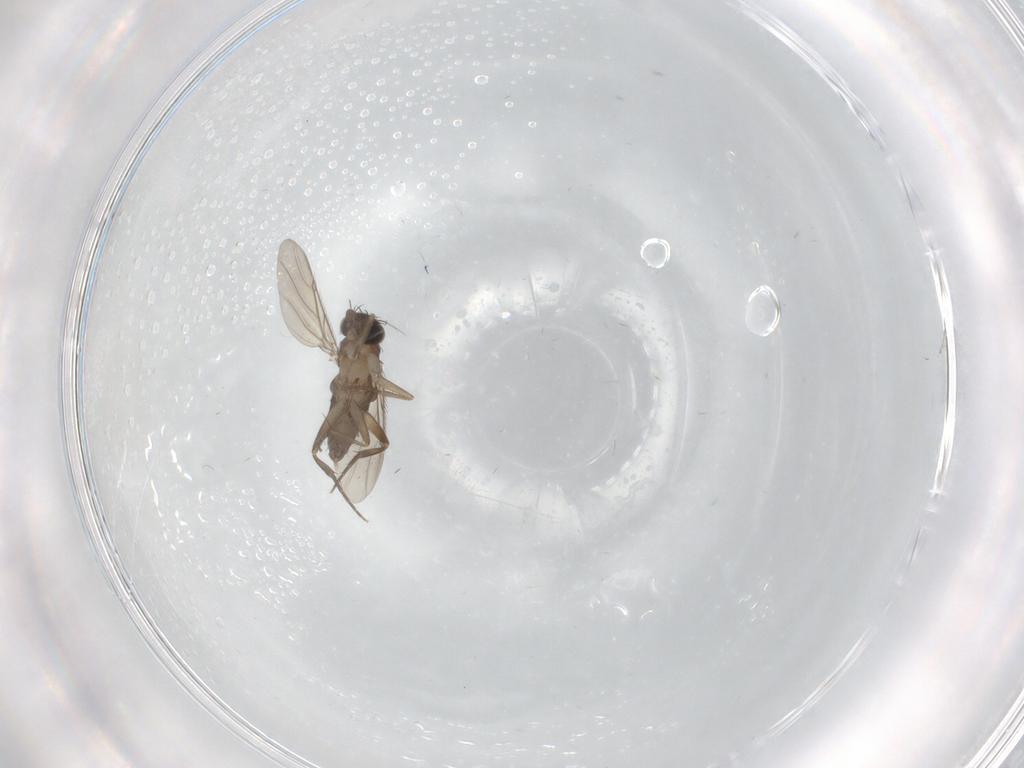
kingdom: Animalia
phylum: Arthropoda
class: Insecta
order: Diptera
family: Phoridae
